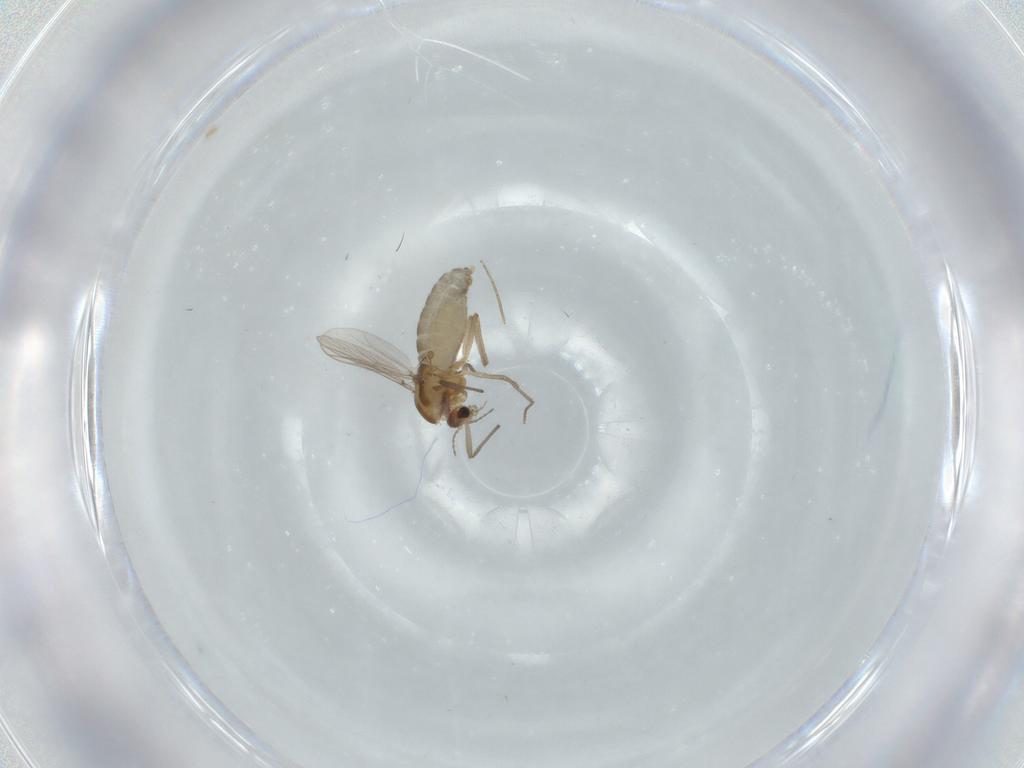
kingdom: Animalia
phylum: Arthropoda
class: Insecta
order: Diptera
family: Chironomidae
